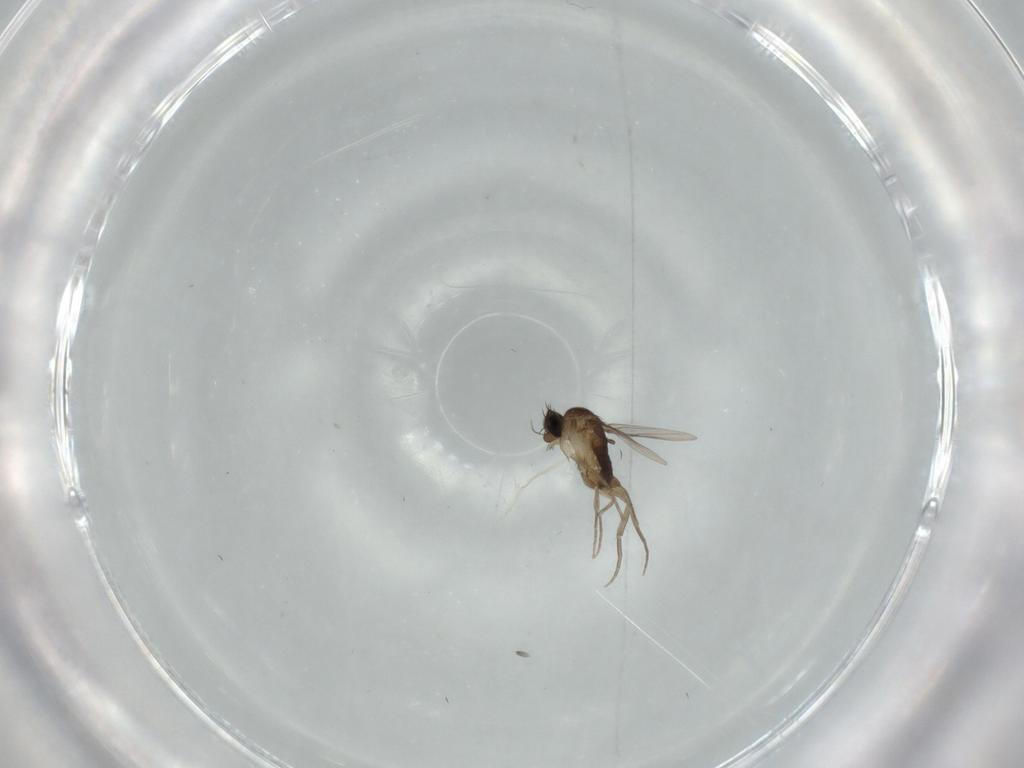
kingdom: Animalia
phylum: Arthropoda
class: Insecta
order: Diptera
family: Phoridae
